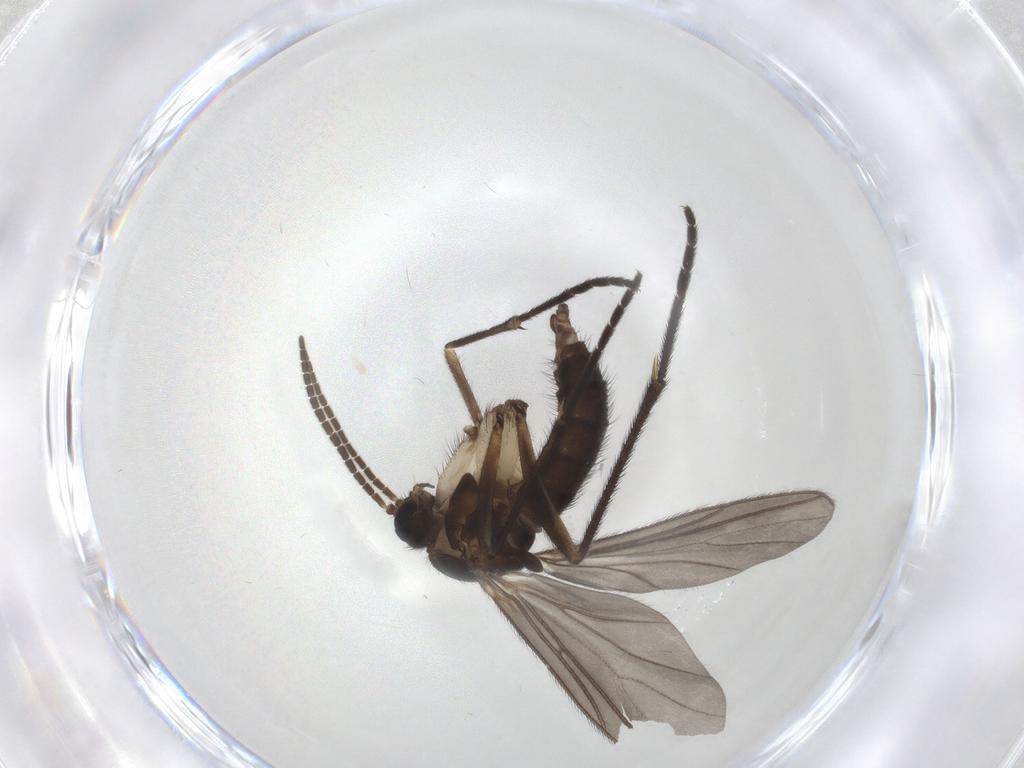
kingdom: Animalia
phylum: Arthropoda
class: Insecta
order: Diptera
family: Sciaridae
